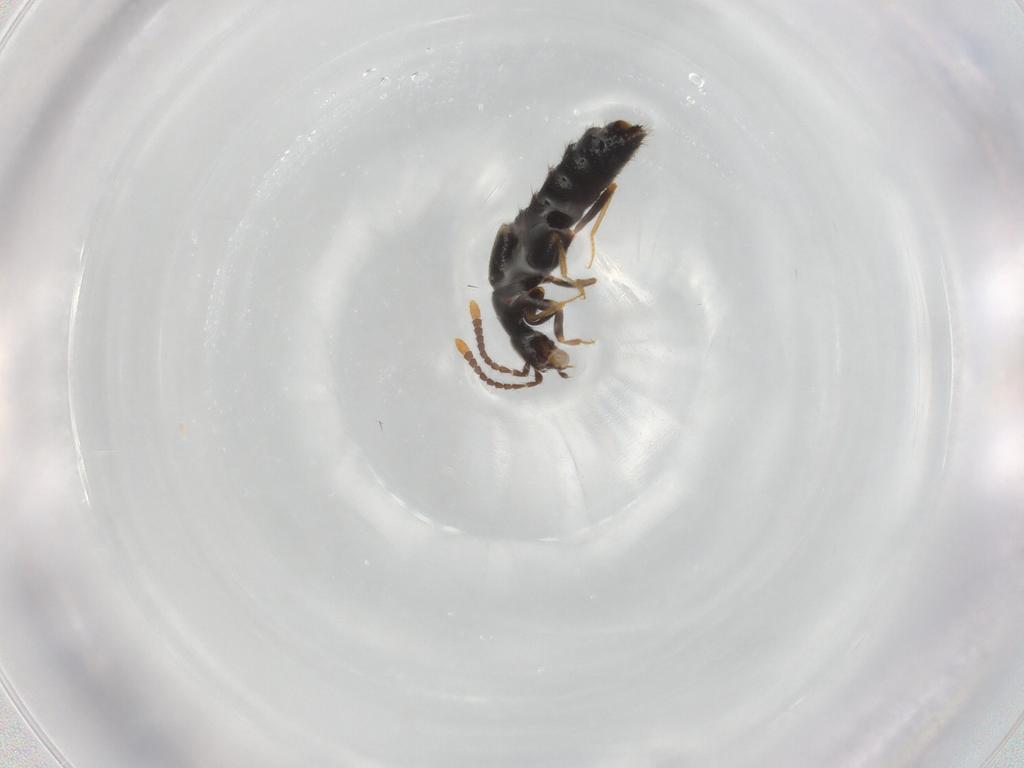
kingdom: Animalia
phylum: Arthropoda
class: Insecta
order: Coleoptera
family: Staphylinidae
